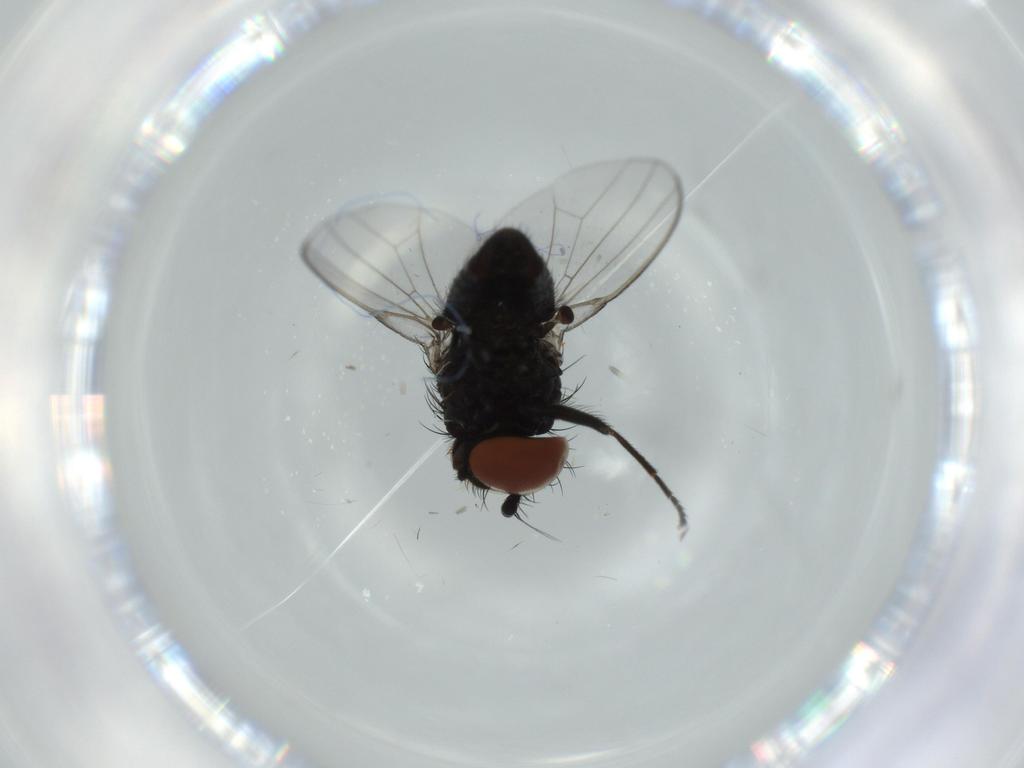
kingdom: Animalia
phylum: Arthropoda
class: Insecta
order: Diptera
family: Milichiidae
